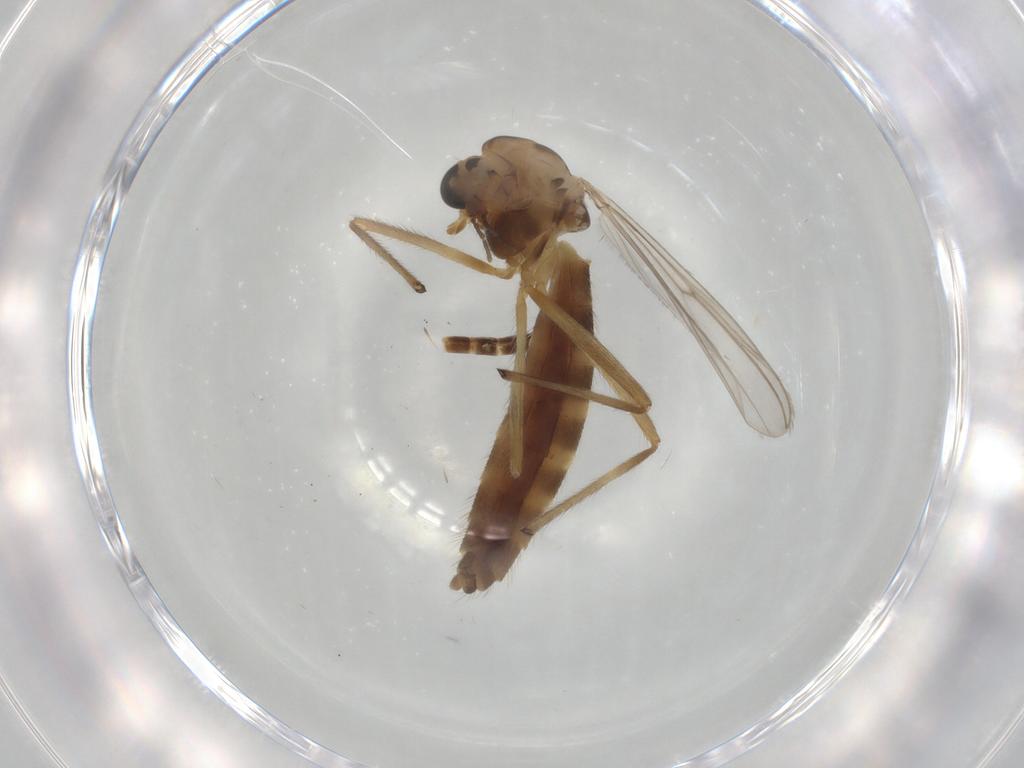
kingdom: Animalia
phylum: Arthropoda
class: Insecta
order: Diptera
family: Chironomidae
